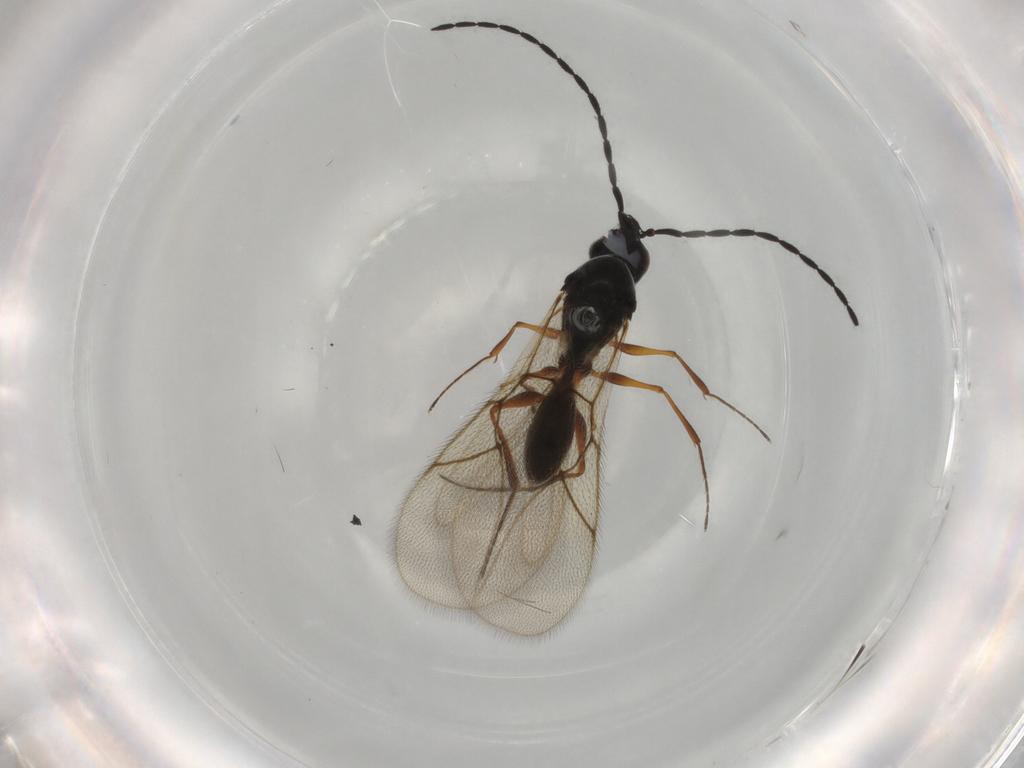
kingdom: Animalia
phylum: Arthropoda
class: Insecta
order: Hymenoptera
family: Figitidae
